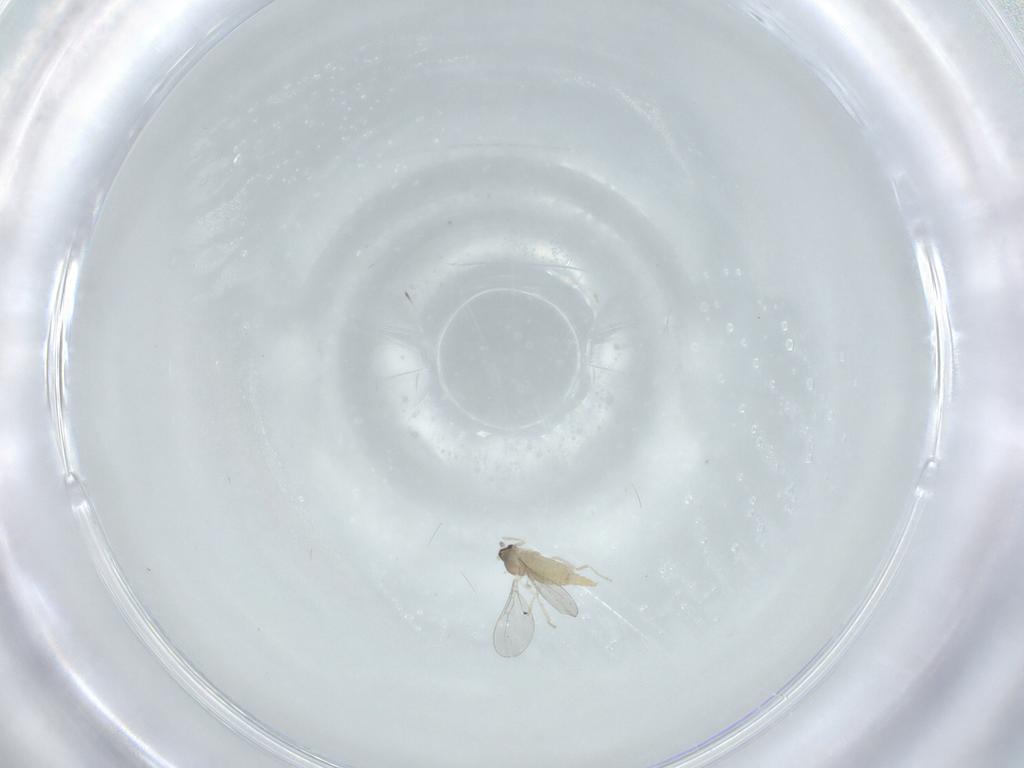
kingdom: Animalia
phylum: Arthropoda
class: Insecta
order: Diptera
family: Cecidomyiidae
